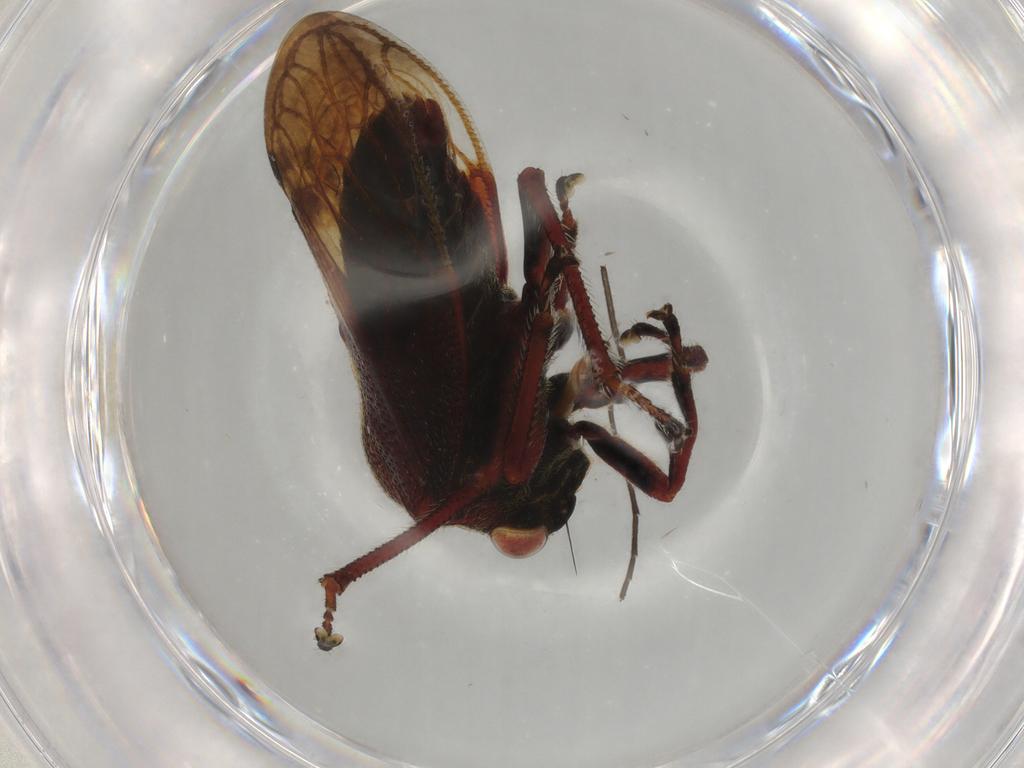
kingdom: Animalia
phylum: Arthropoda
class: Insecta
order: Hemiptera
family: Membracidae
